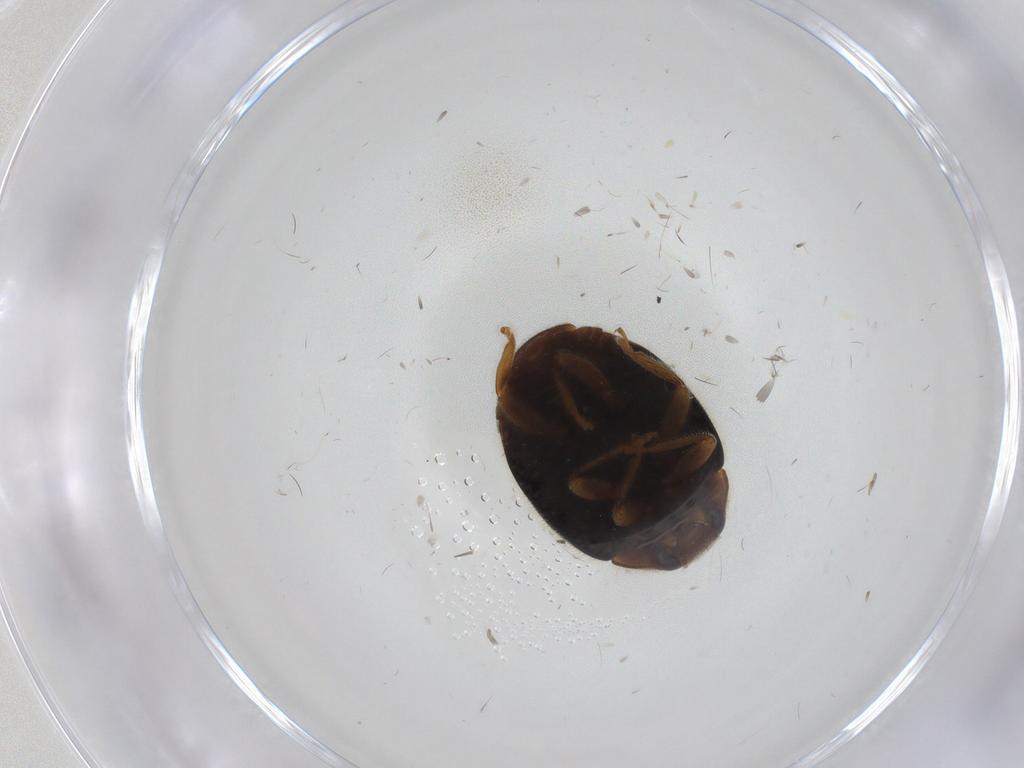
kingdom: Animalia
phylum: Arthropoda
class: Insecta
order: Coleoptera
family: Coccinellidae
